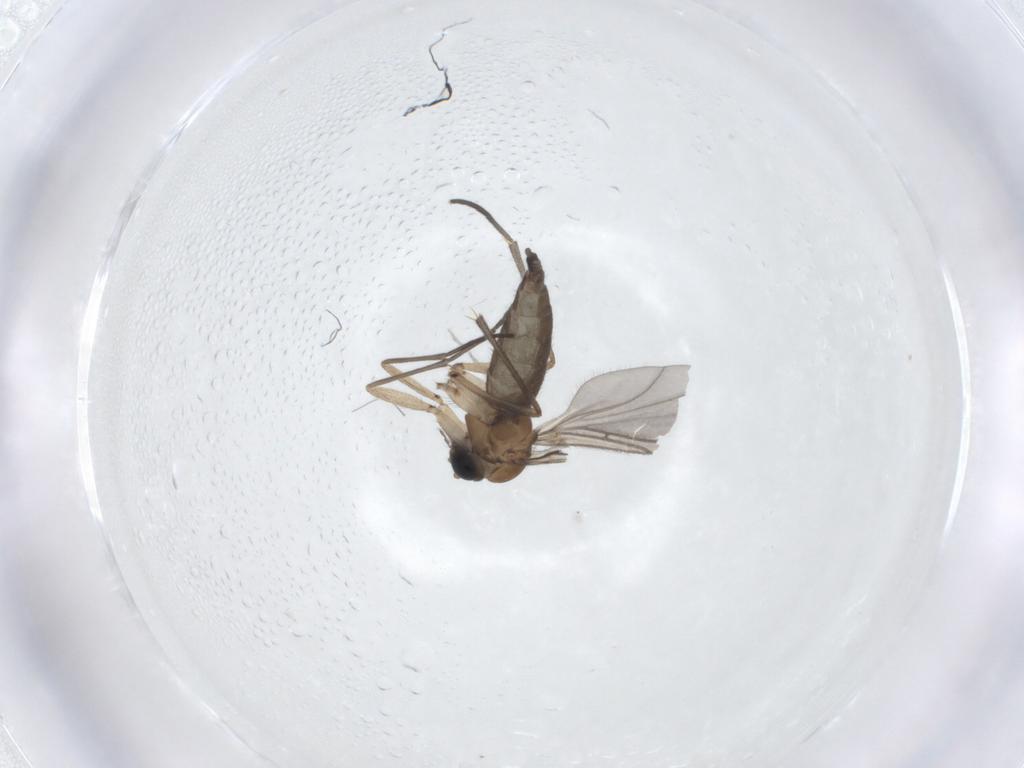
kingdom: Animalia
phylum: Arthropoda
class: Insecta
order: Diptera
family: Sciaridae
